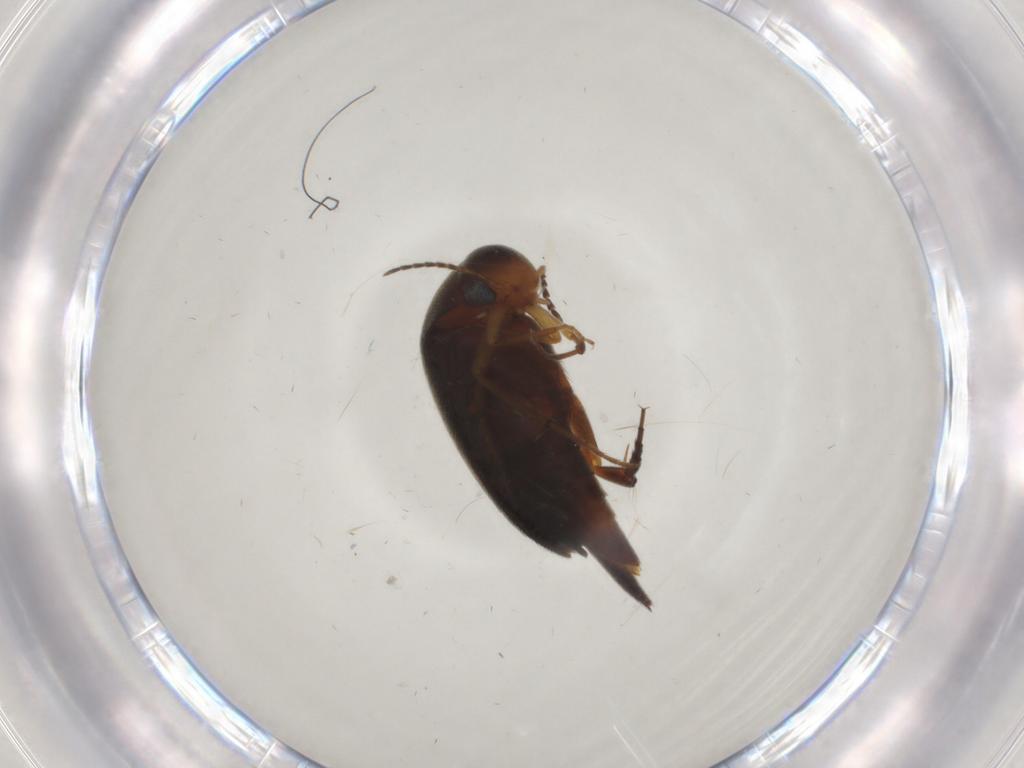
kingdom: Animalia
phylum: Arthropoda
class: Insecta
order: Coleoptera
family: Mordellidae
